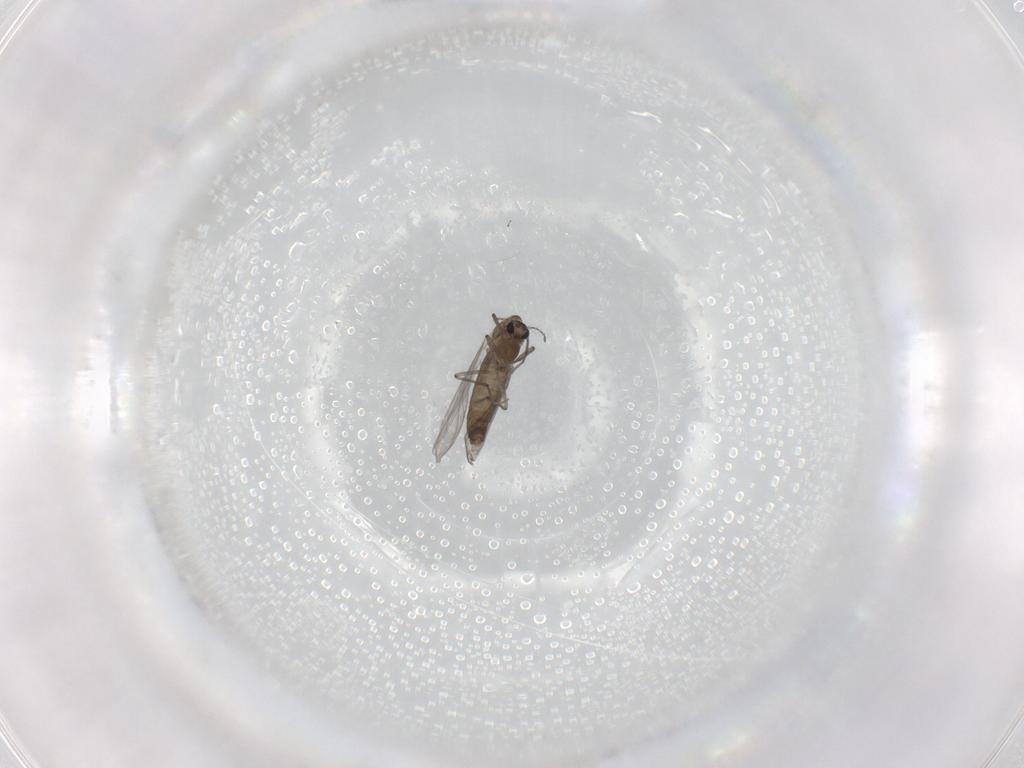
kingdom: Animalia
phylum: Arthropoda
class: Insecta
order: Diptera
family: Chironomidae
